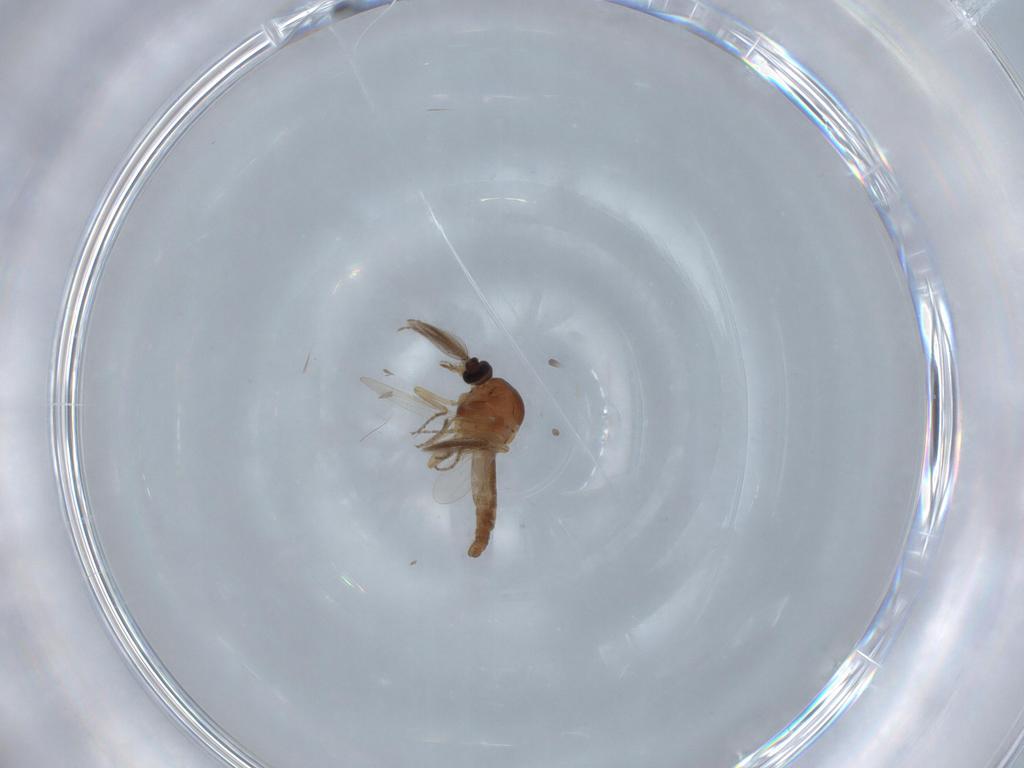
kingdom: Animalia
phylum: Arthropoda
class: Insecta
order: Diptera
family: Ceratopogonidae
